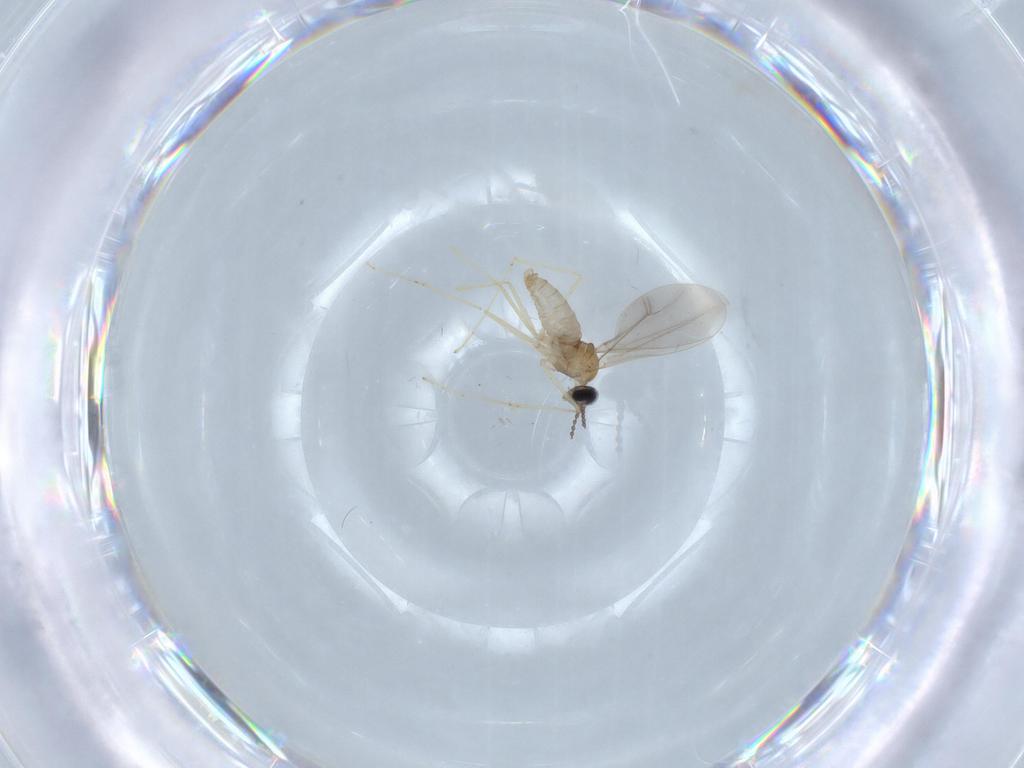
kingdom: Animalia
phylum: Arthropoda
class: Insecta
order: Diptera
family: Cecidomyiidae
